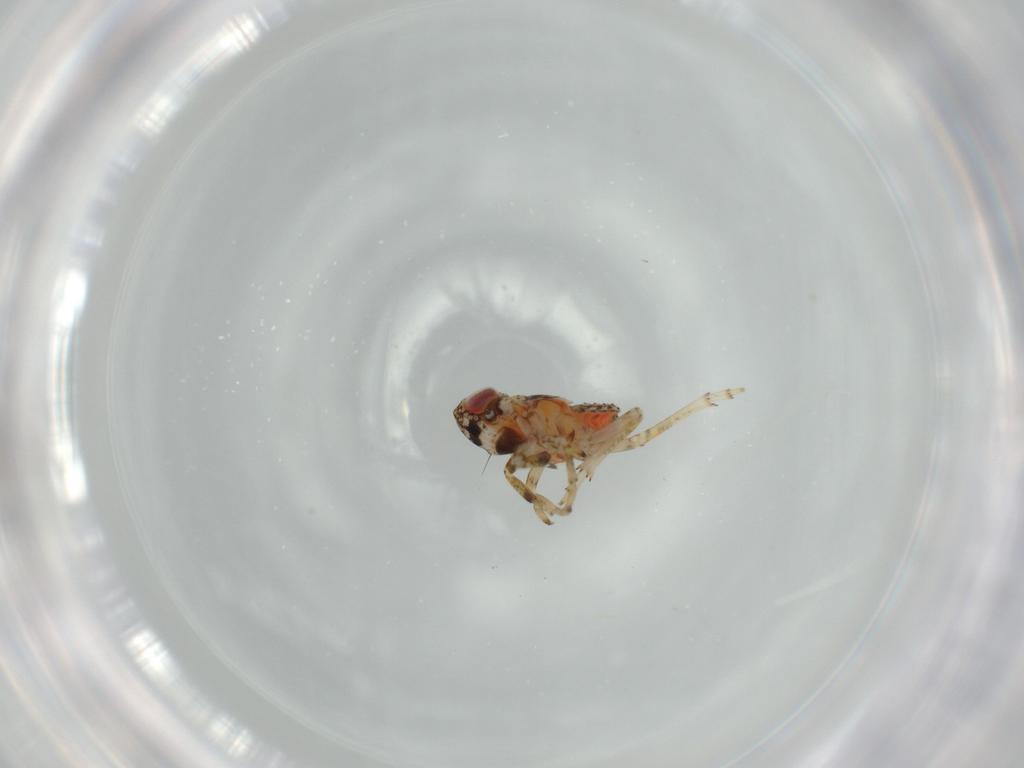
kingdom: Animalia
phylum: Arthropoda
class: Insecta
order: Hemiptera
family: Issidae
